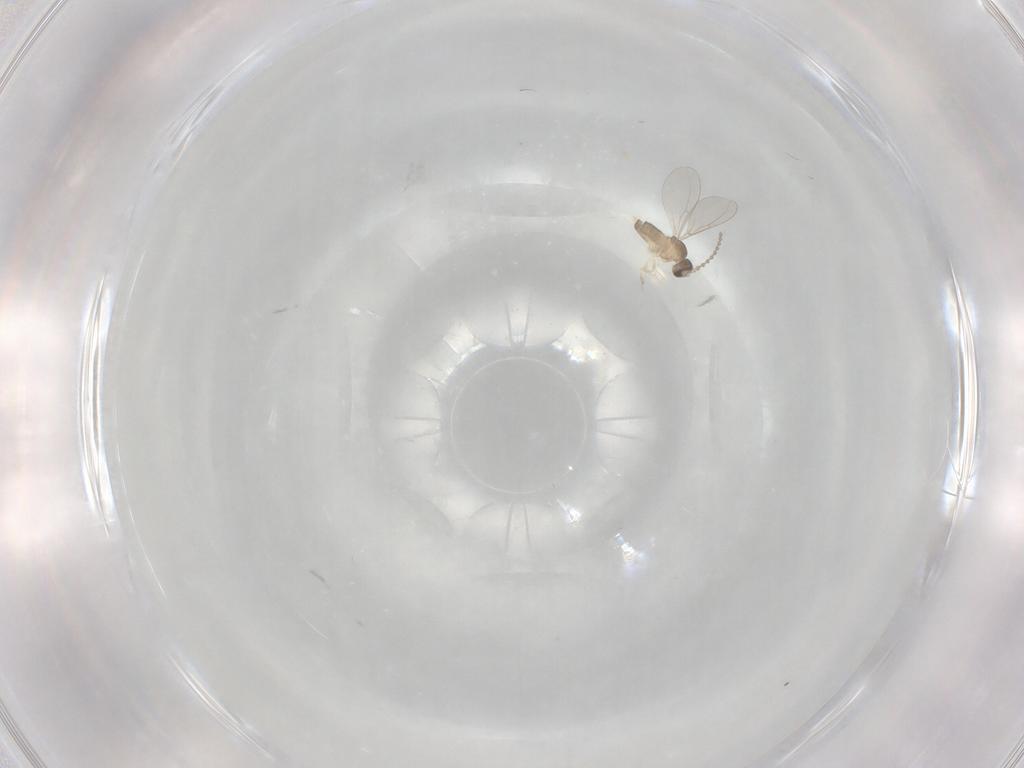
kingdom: Animalia
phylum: Arthropoda
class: Insecta
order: Diptera
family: Cecidomyiidae
